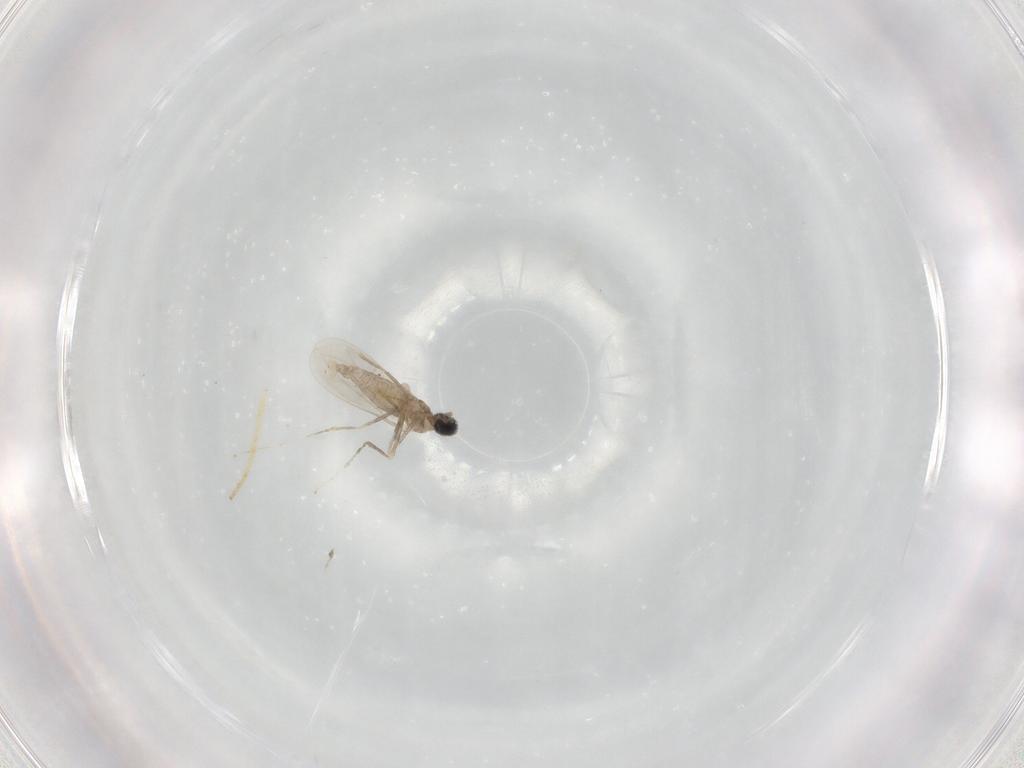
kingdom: Animalia
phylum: Arthropoda
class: Insecta
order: Diptera
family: Cecidomyiidae
